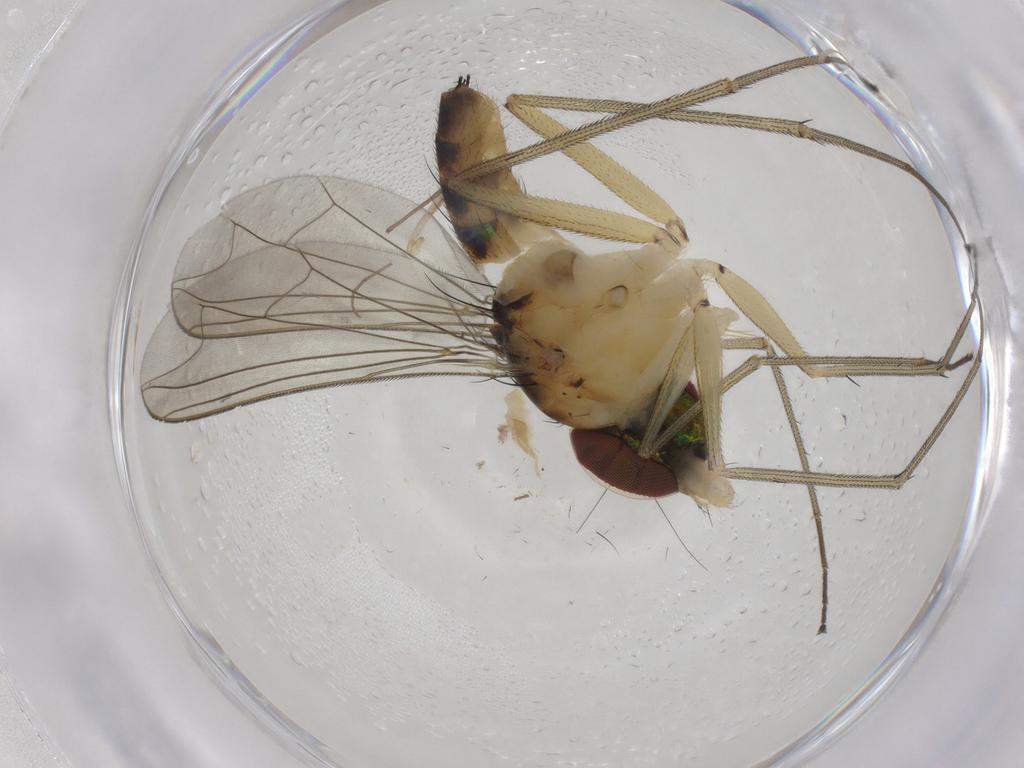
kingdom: Animalia
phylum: Arthropoda
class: Insecta
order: Diptera
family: Dolichopodidae
